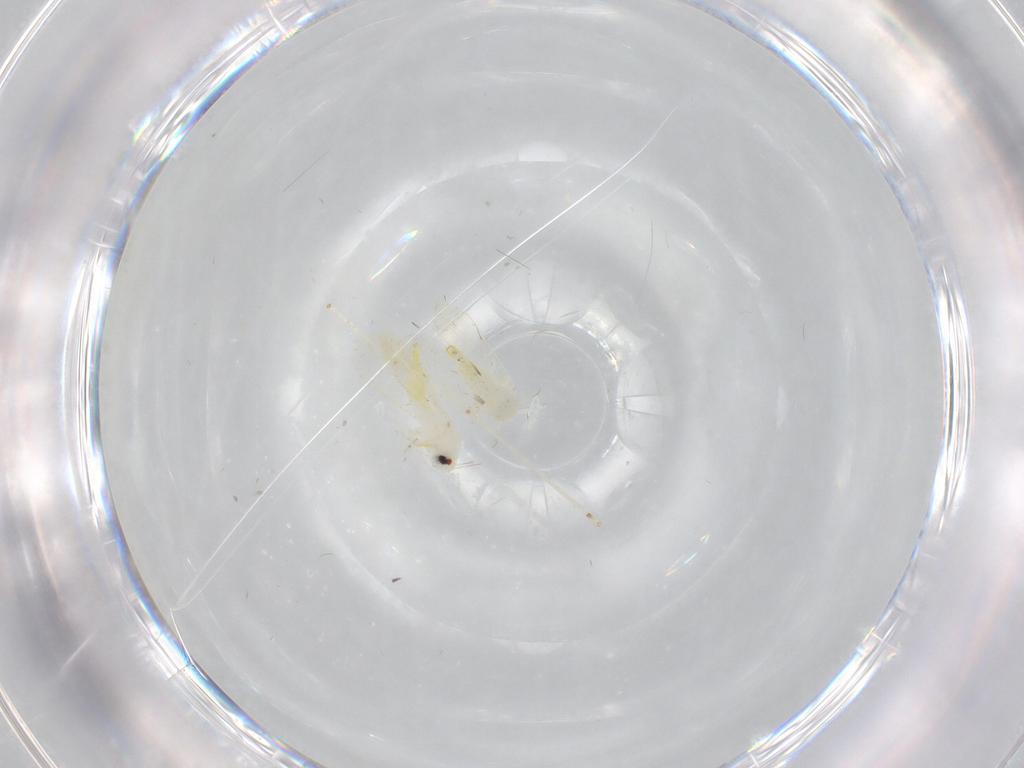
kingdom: Animalia
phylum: Arthropoda
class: Insecta
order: Hemiptera
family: Aleyrodidae
